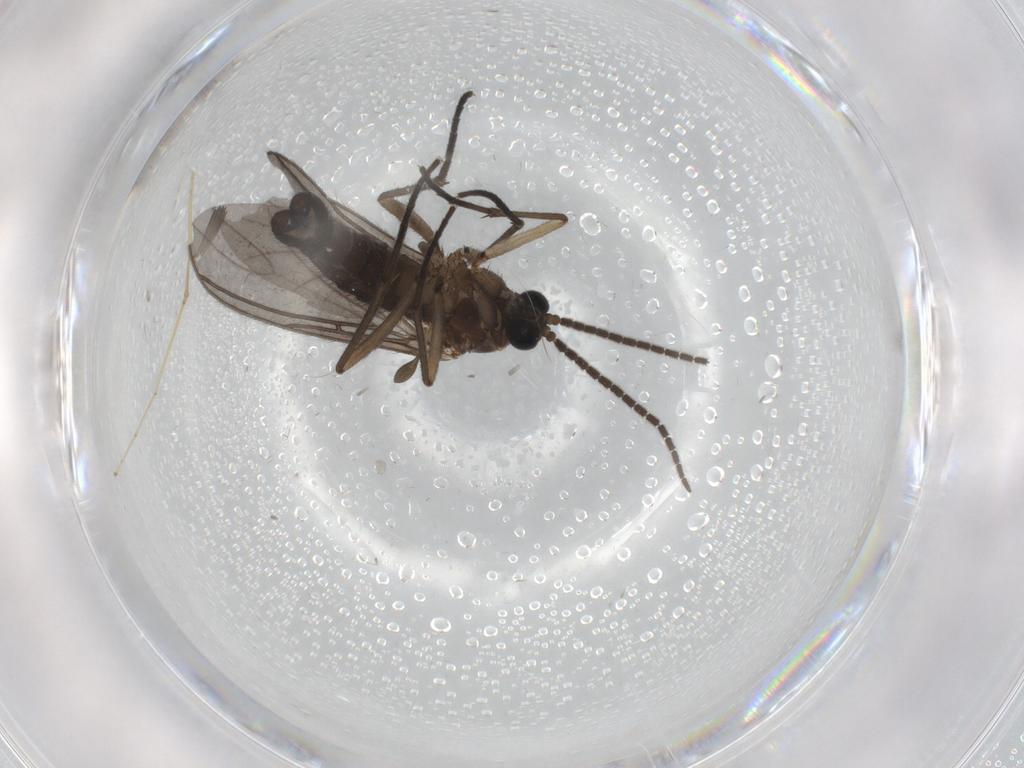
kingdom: Animalia
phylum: Arthropoda
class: Insecta
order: Diptera
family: Sciaridae
